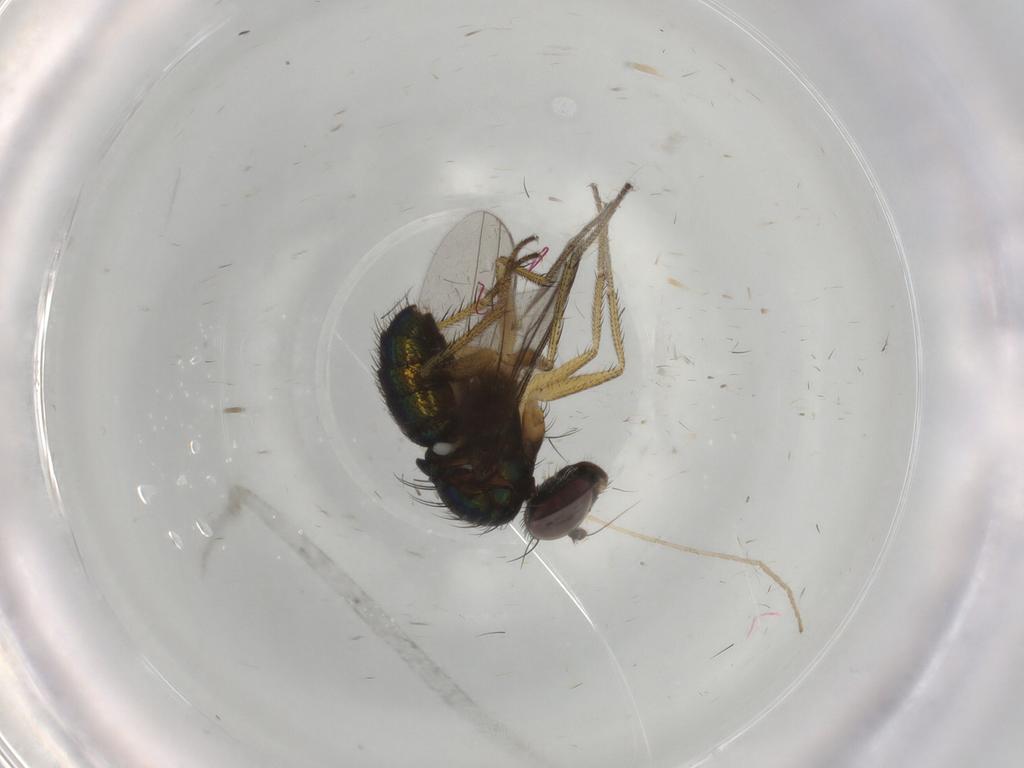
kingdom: Animalia
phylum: Arthropoda
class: Insecta
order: Diptera
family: Dolichopodidae
